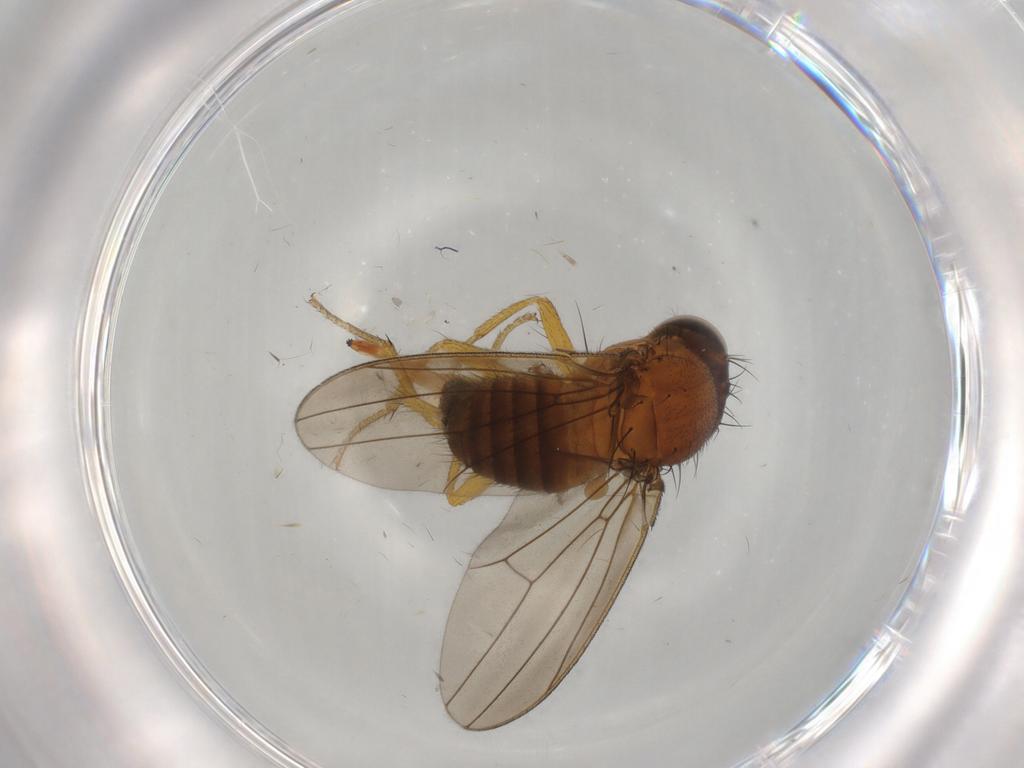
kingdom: Animalia
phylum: Arthropoda
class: Insecta
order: Diptera
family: Drosophilidae
